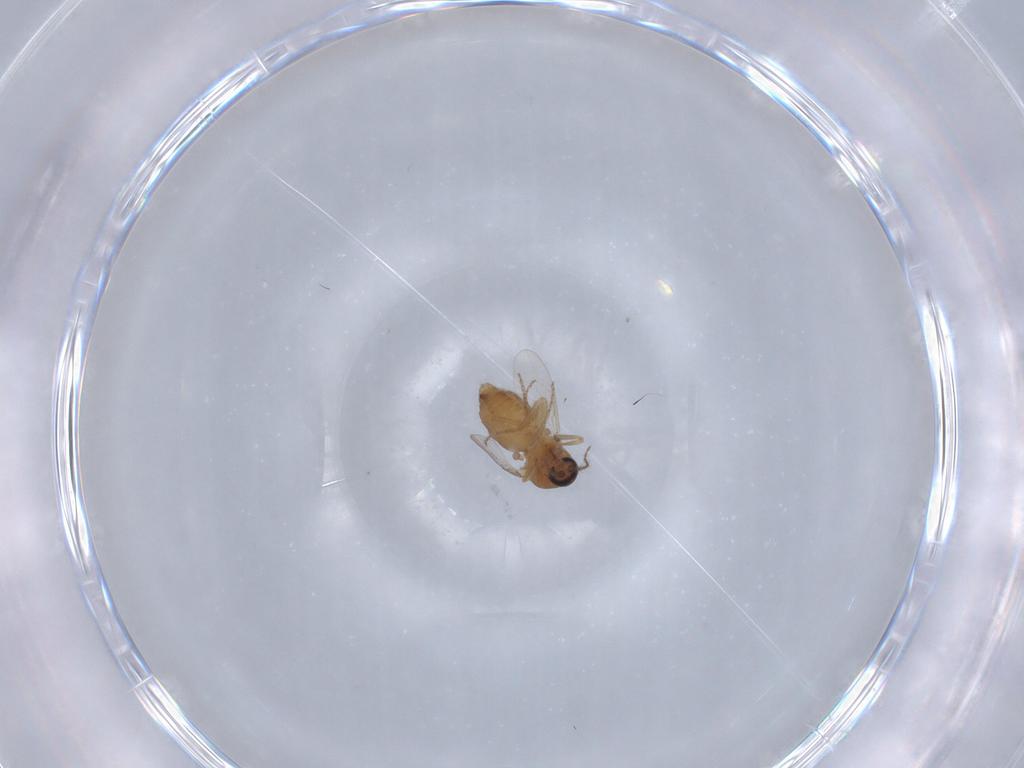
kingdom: Animalia
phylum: Arthropoda
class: Insecta
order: Diptera
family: Ceratopogonidae
